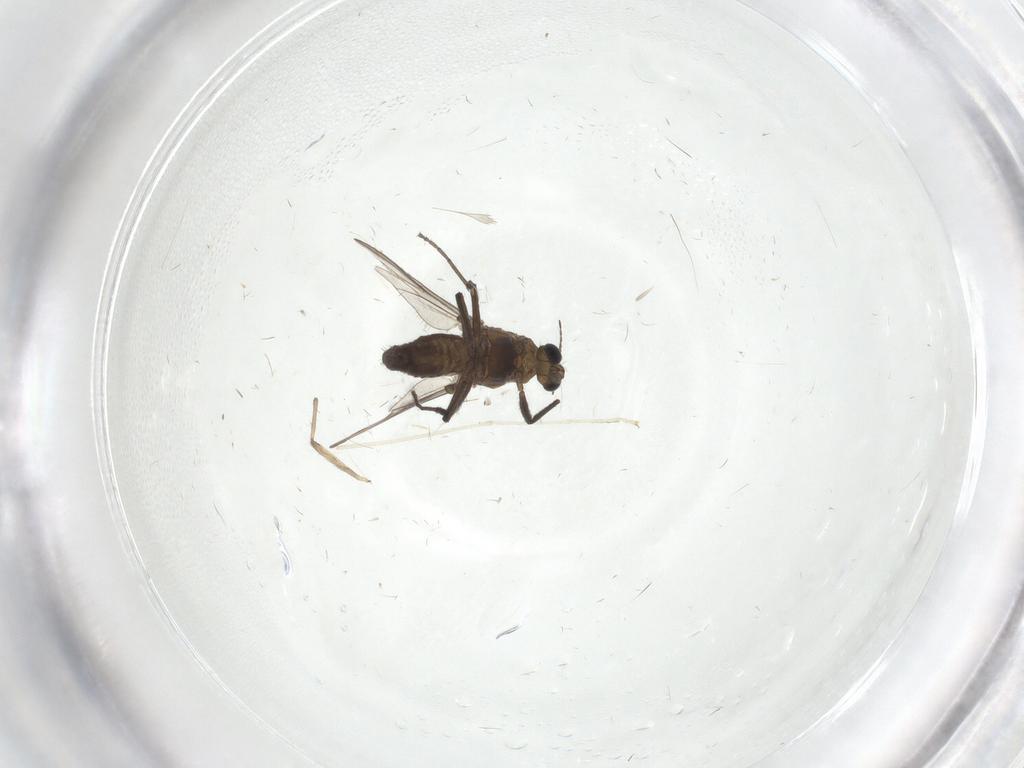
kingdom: Animalia
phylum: Arthropoda
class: Insecta
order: Diptera
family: Chironomidae
